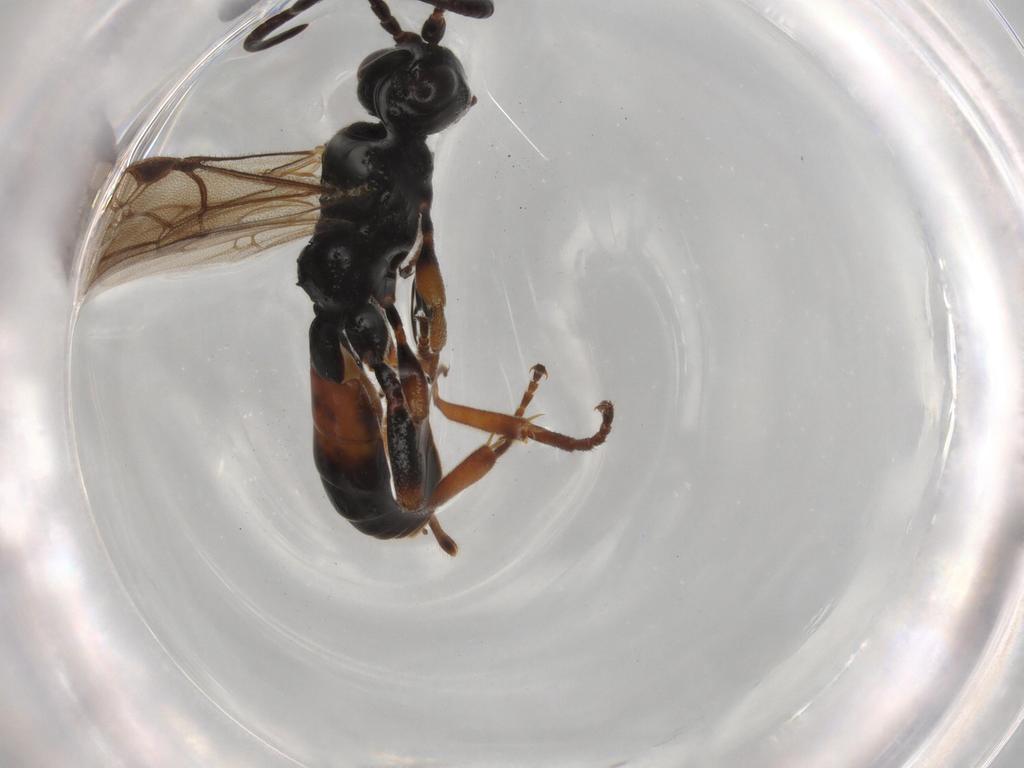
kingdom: Animalia
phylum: Arthropoda
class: Insecta
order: Hymenoptera
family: Ichneumonidae
